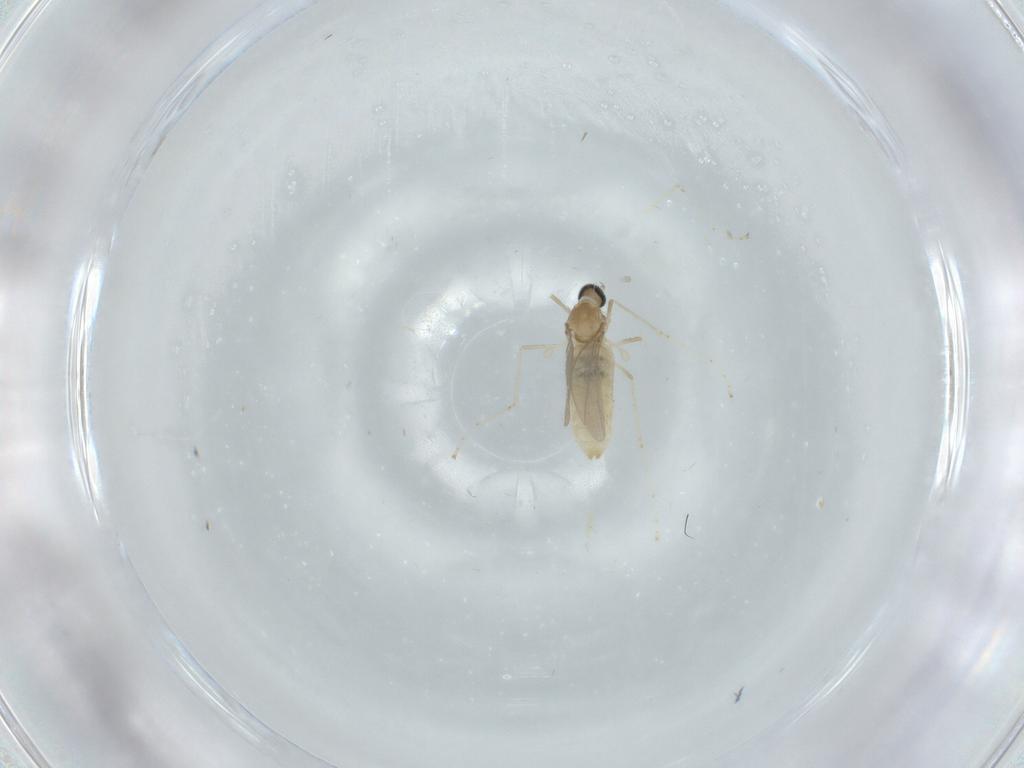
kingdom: Animalia
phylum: Arthropoda
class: Insecta
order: Diptera
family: Cecidomyiidae
